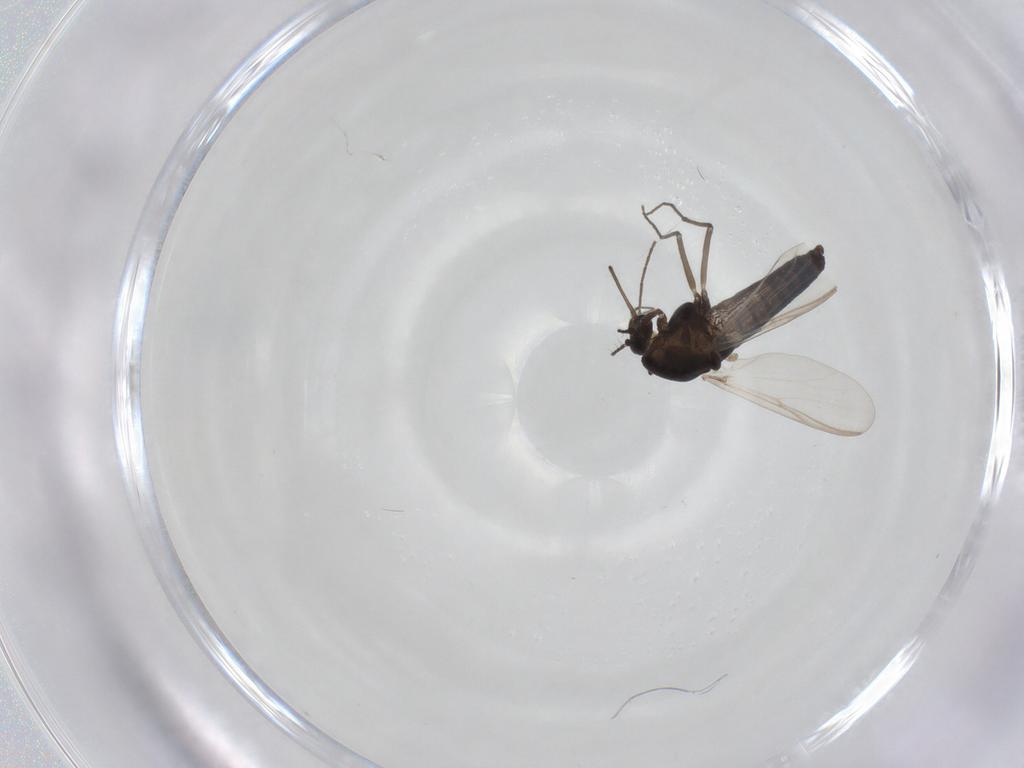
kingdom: Animalia
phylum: Arthropoda
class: Insecta
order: Diptera
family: Chironomidae
